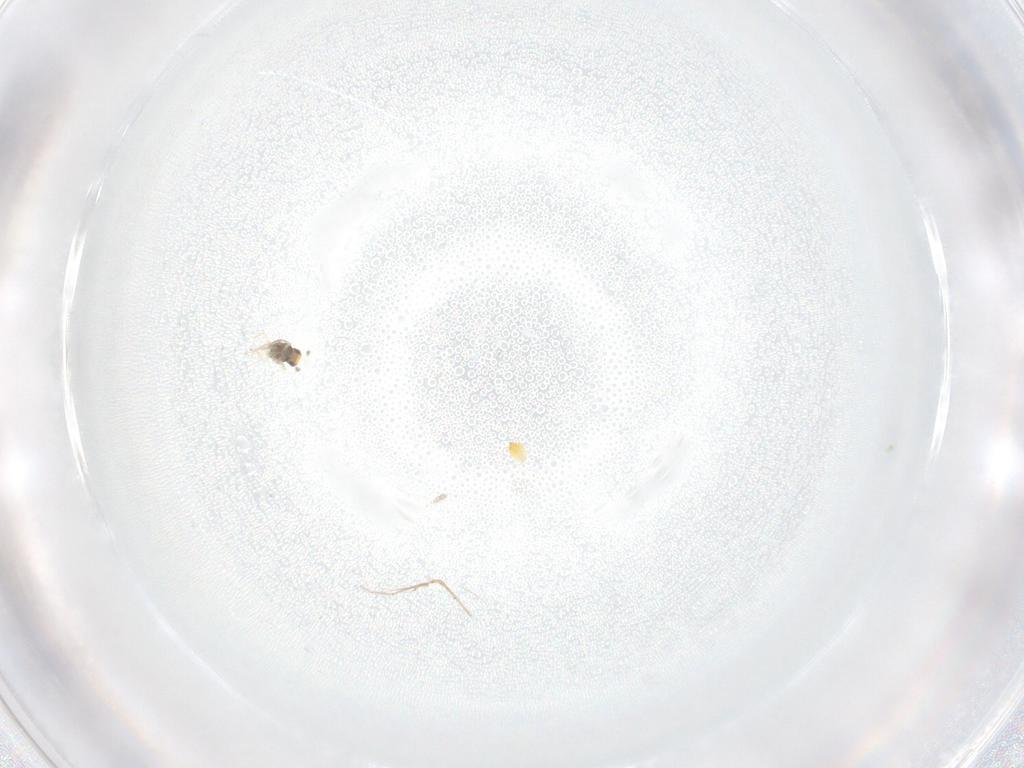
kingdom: Animalia
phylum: Arthropoda
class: Insecta
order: Hymenoptera
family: Eulophidae
